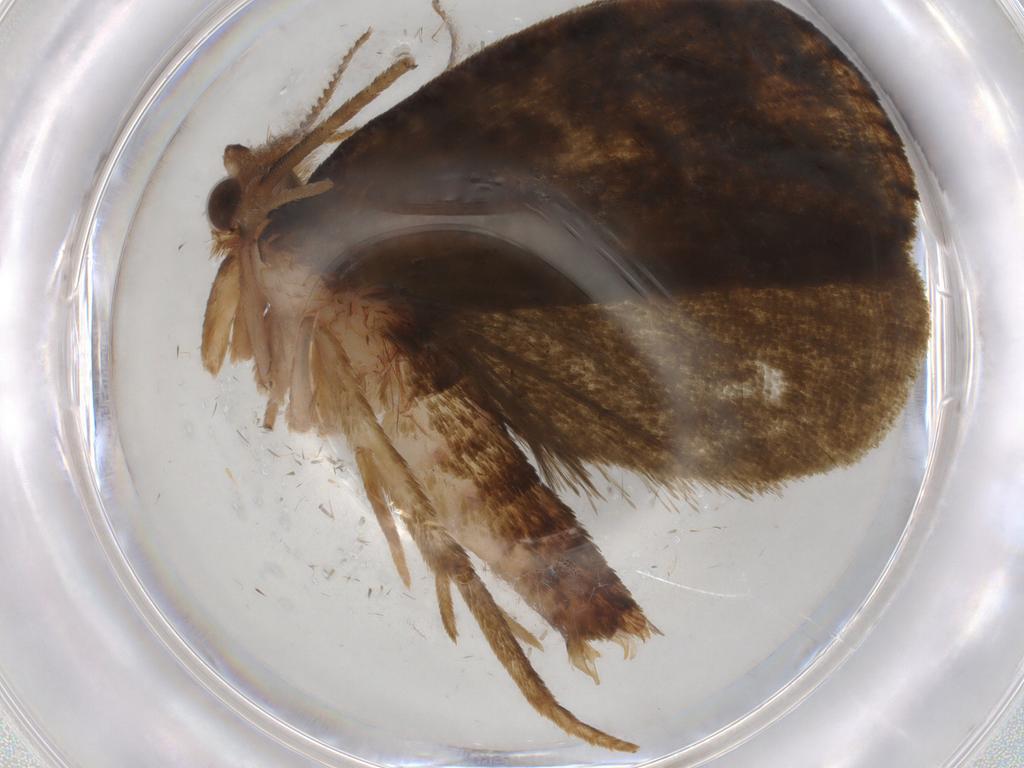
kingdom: Animalia
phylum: Arthropoda
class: Insecta
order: Lepidoptera
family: Geometridae
